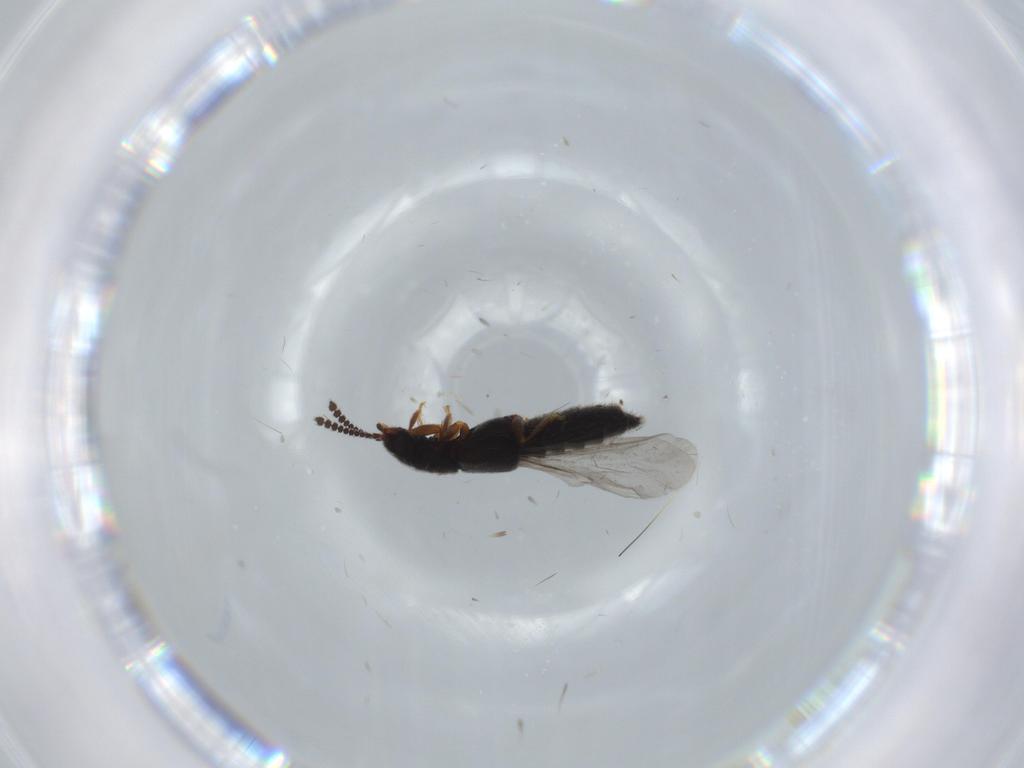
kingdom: Animalia
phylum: Arthropoda
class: Insecta
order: Coleoptera
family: Staphylinidae
